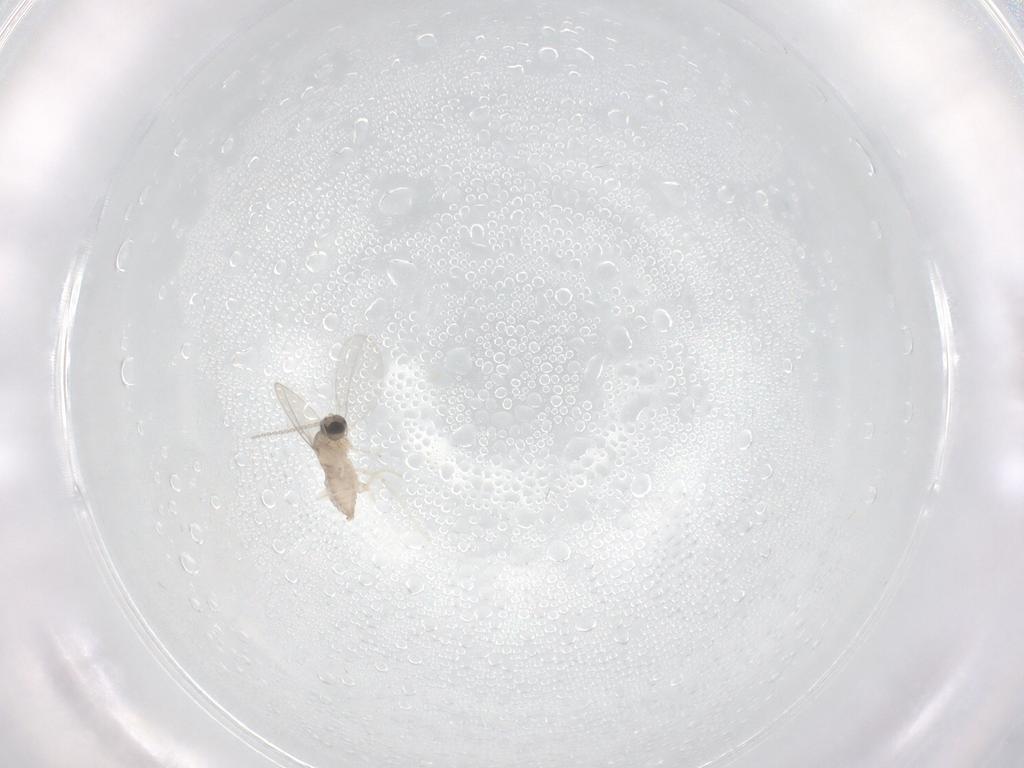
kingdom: Animalia
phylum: Arthropoda
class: Insecta
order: Diptera
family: Cecidomyiidae
